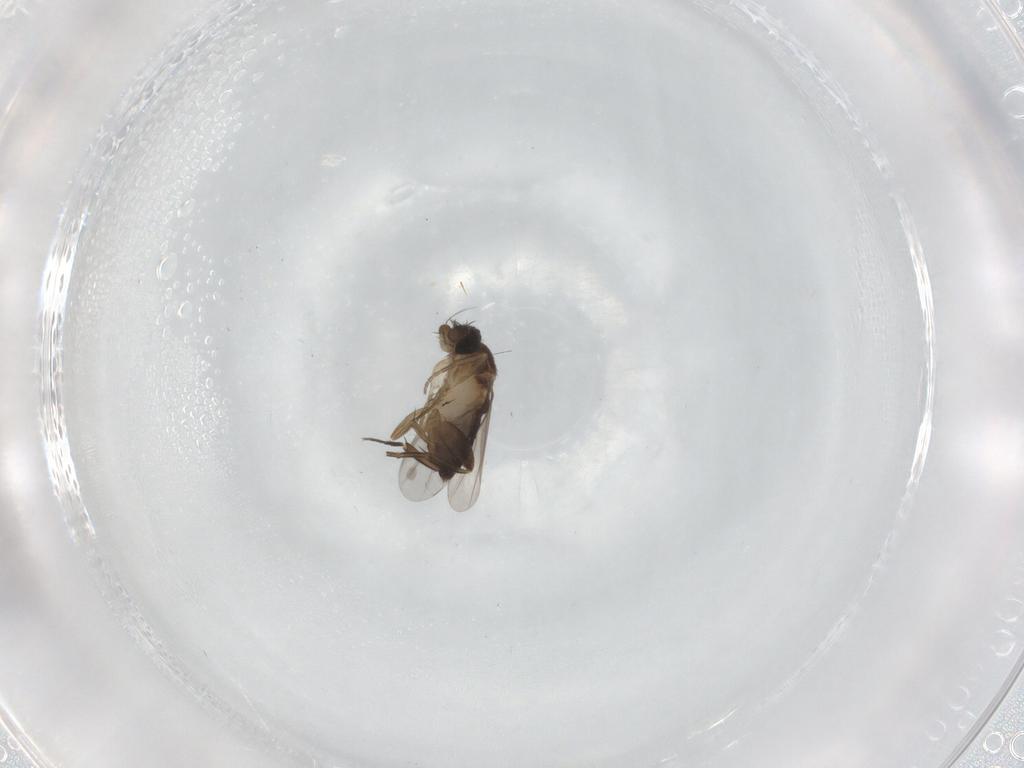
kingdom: Animalia
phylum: Arthropoda
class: Insecta
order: Diptera
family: Phoridae
